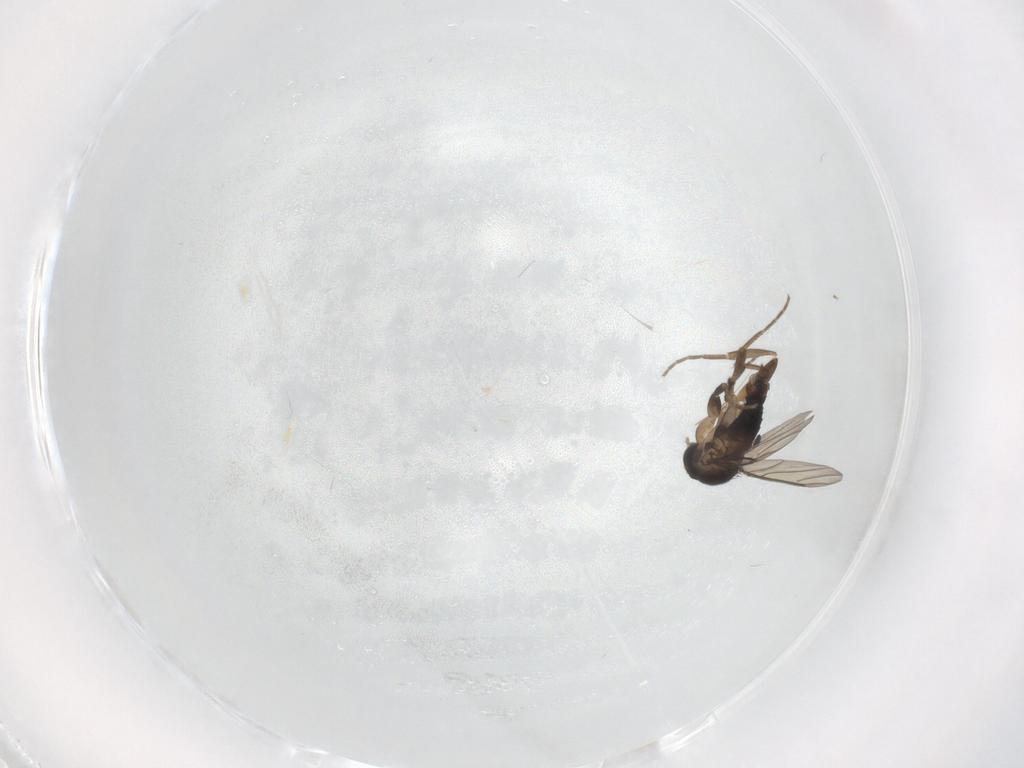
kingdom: Animalia
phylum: Arthropoda
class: Insecta
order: Diptera
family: Phoridae
